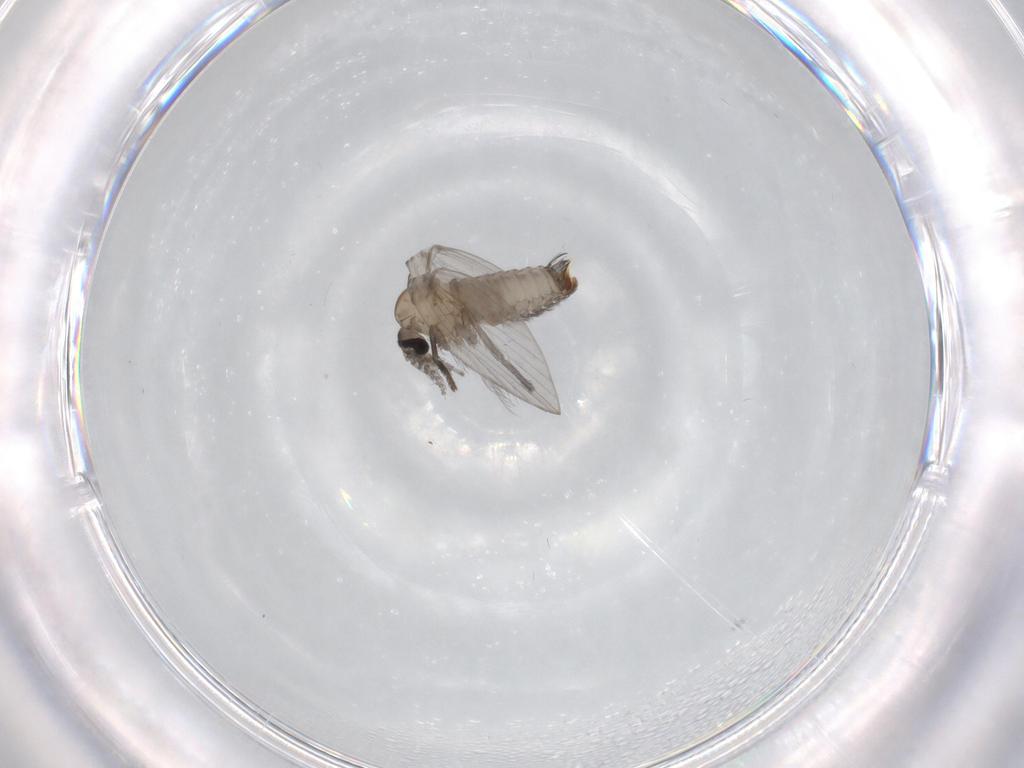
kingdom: Animalia
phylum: Arthropoda
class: Insecta
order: Diptera
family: Psychodidae
